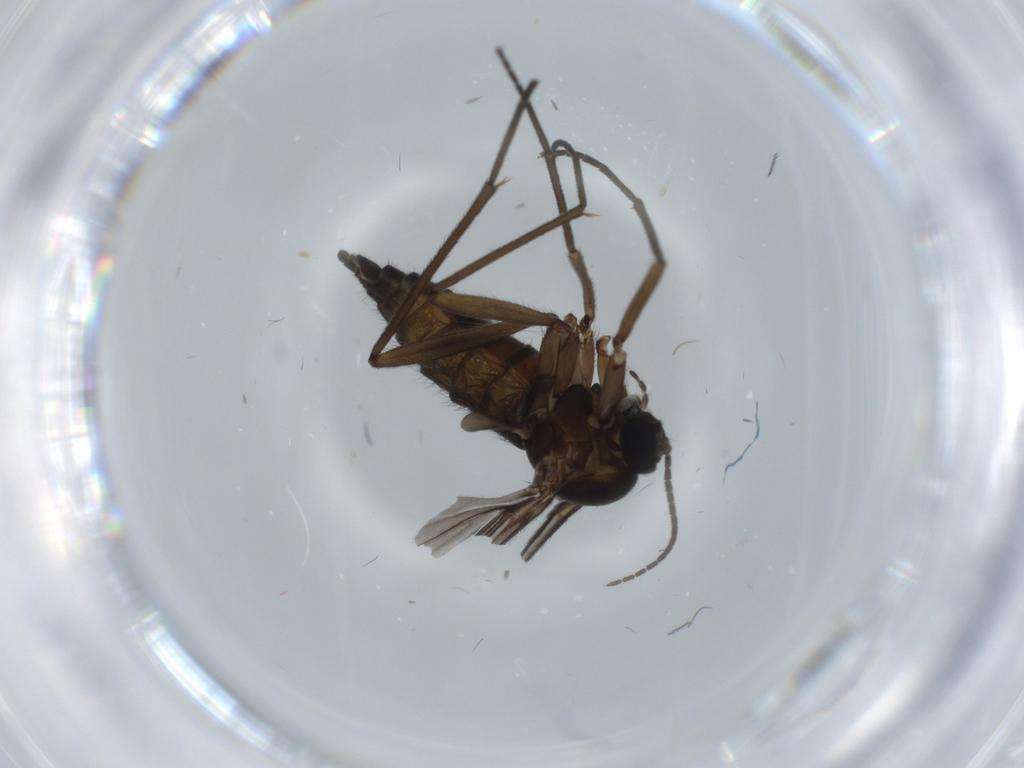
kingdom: Animalia
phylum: Arthropoda
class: Insecta
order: Diptera
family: Sciaridae
